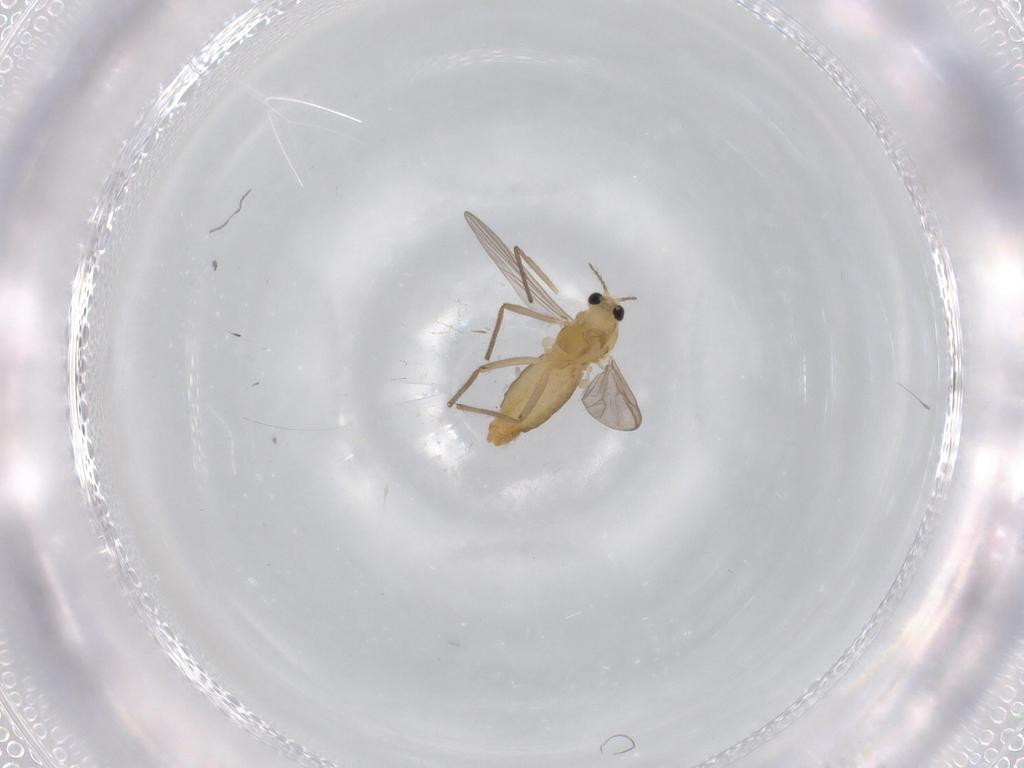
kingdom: Animalia
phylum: Arthropoda
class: Insecta
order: Diptera
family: Chironomidae
